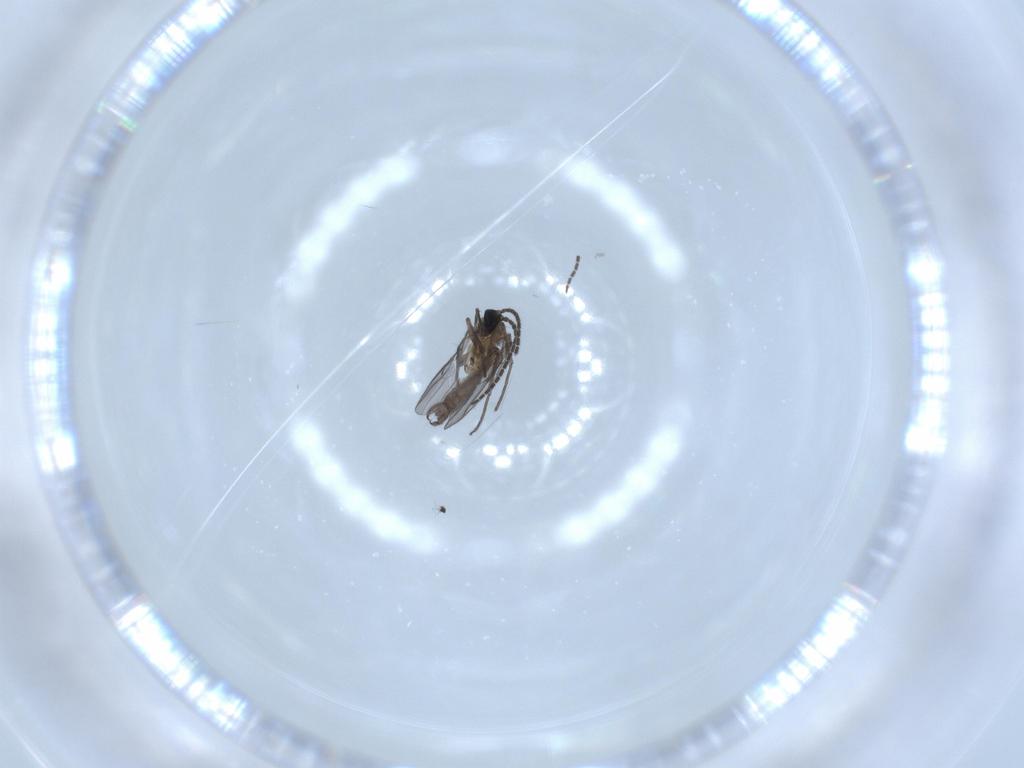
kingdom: Animalia
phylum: Arthropoda
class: Insecta
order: Diptera
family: Sciaridae
